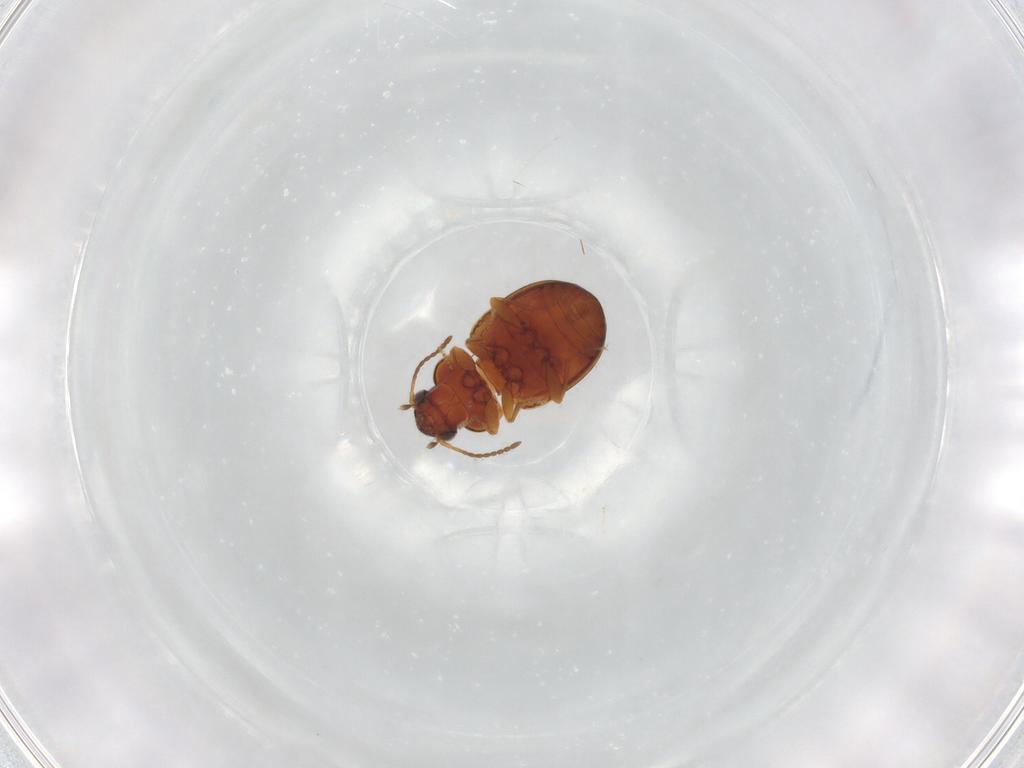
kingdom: Animalia
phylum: Arthropoda
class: Insecta
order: Coleoptera
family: Carabidae
